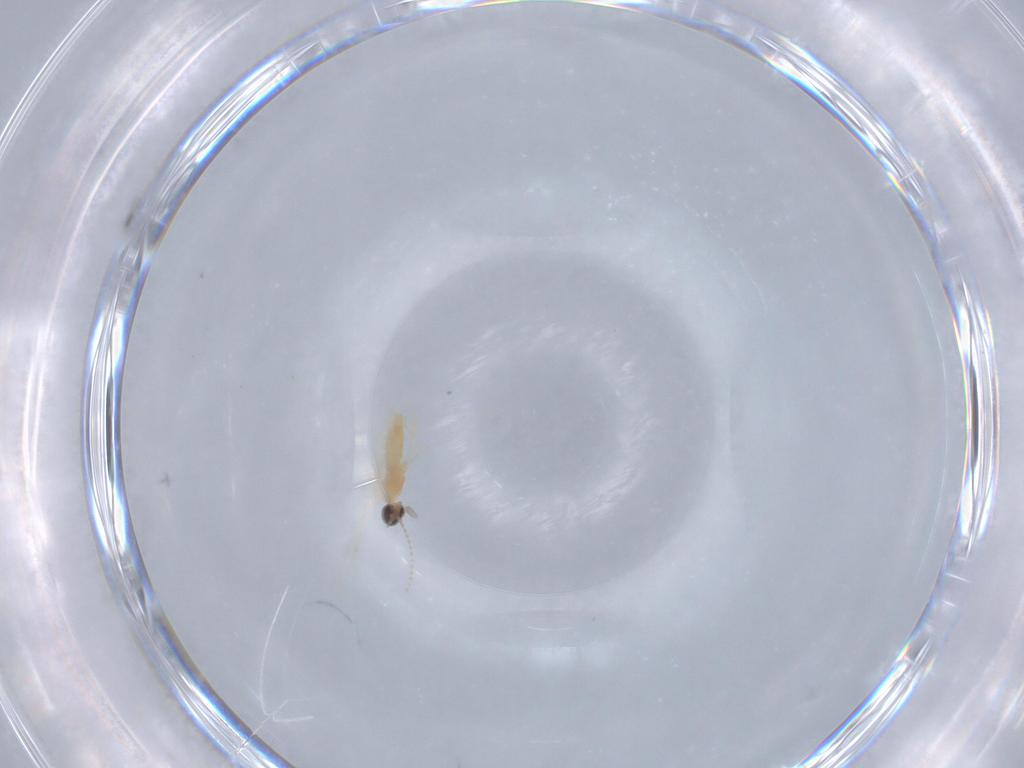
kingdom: Animalia
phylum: Arthropoda
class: Insecta
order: Diptera
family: Cecidomyiidae
